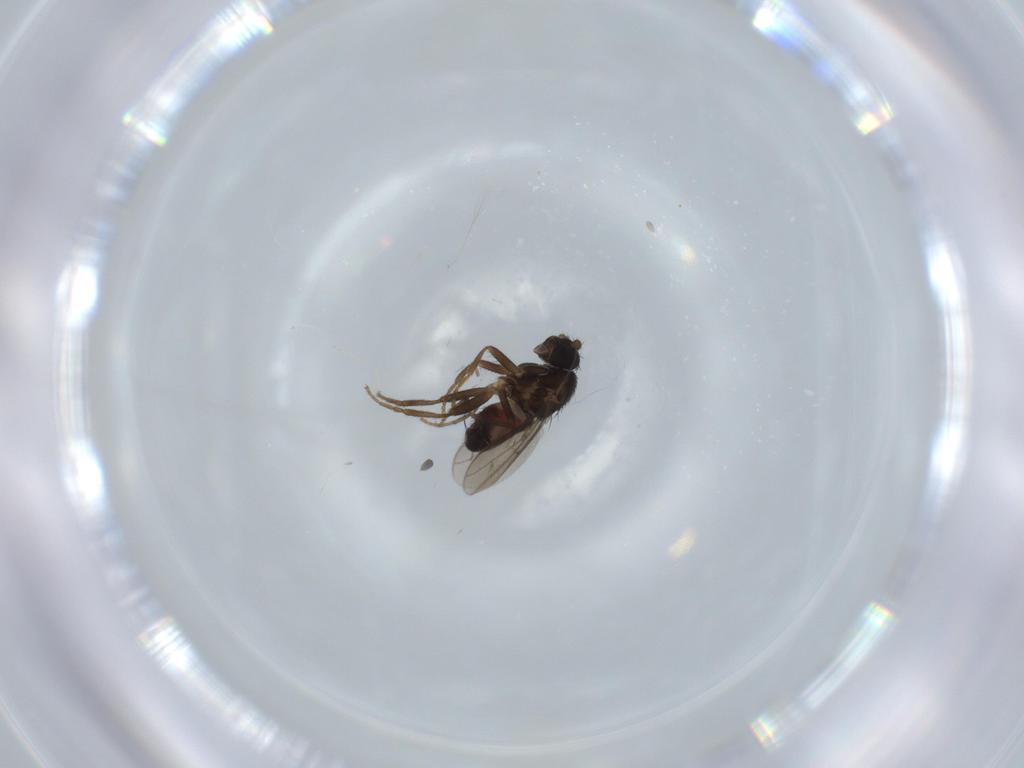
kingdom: Animalia
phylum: Arthropoda
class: Insecta
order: Diptera
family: Sphaeroceridae
